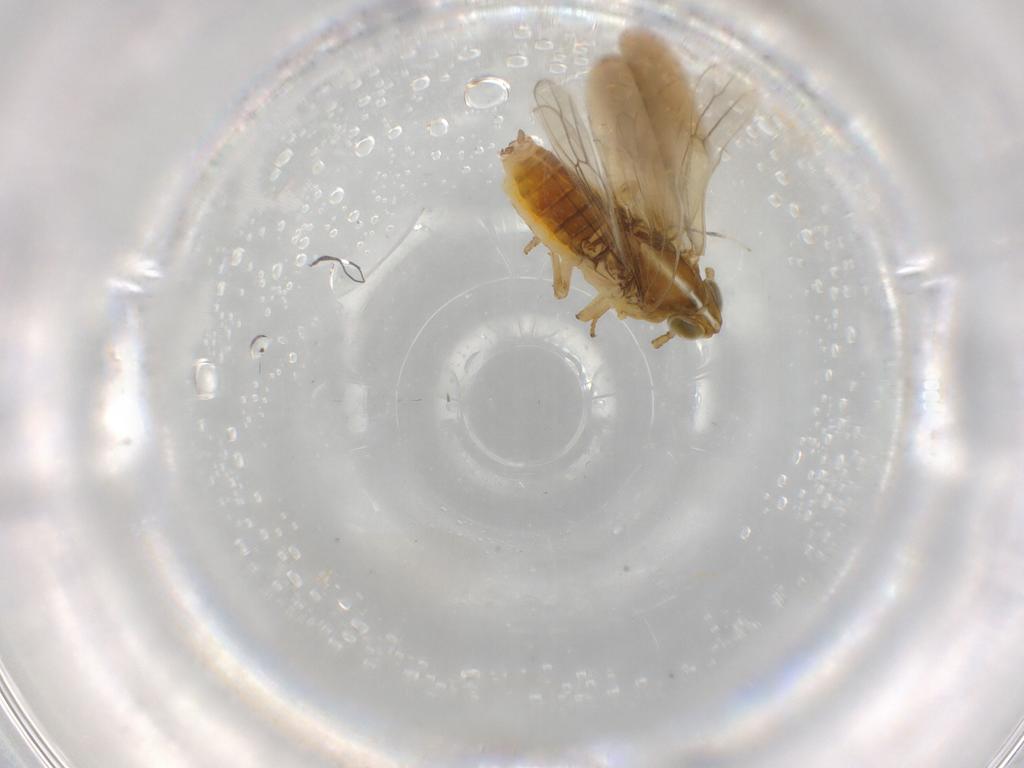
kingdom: Animalia
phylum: Arthropoda
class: Insecta
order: Hemiptera
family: Delphacidae
